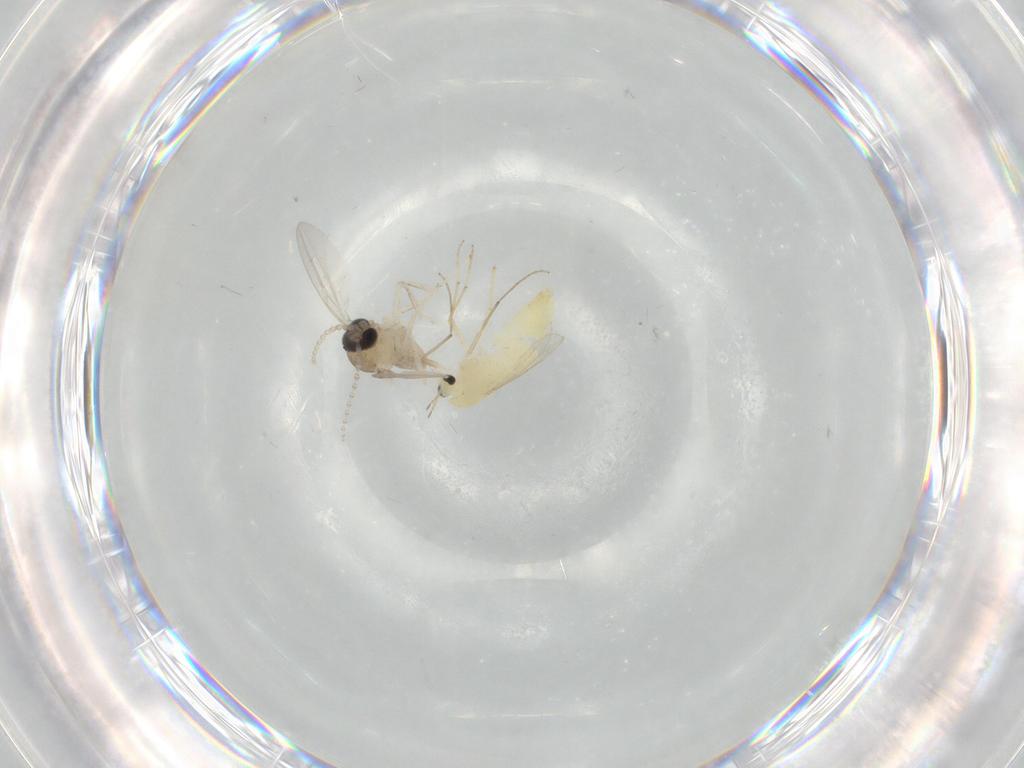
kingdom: Animalia
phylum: Arthropoda
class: Insecta
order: Diptera
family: Chironomidae
